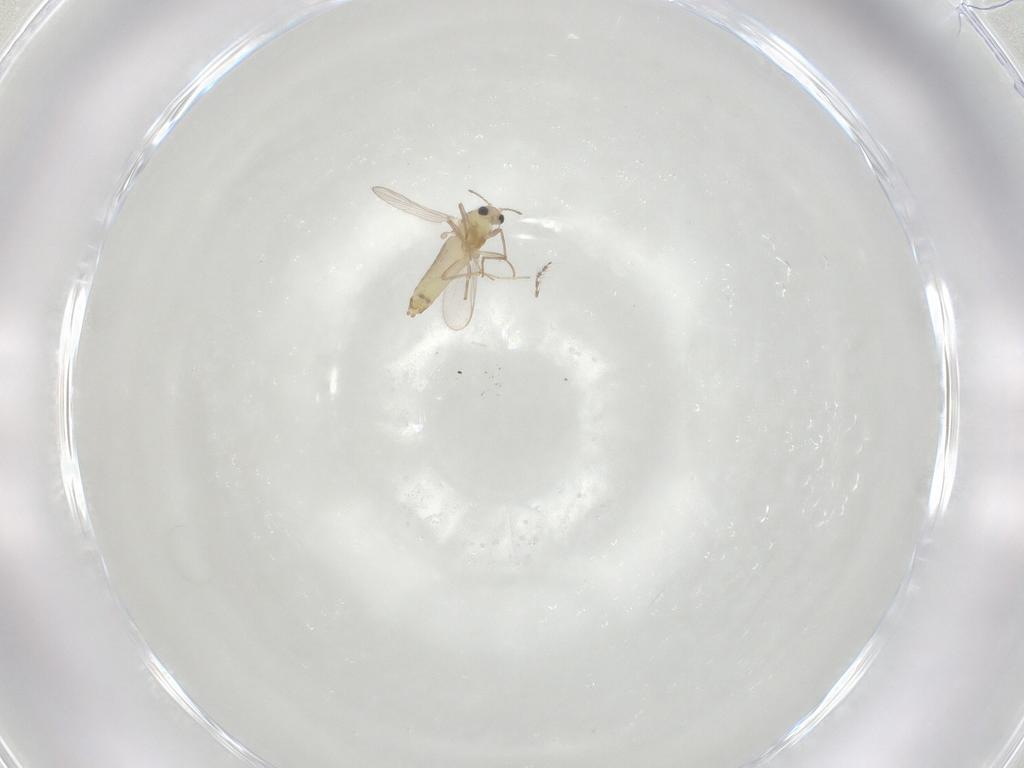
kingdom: Animalia
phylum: Arthropoda
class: Insecta
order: Diptera
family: Chironomidae
